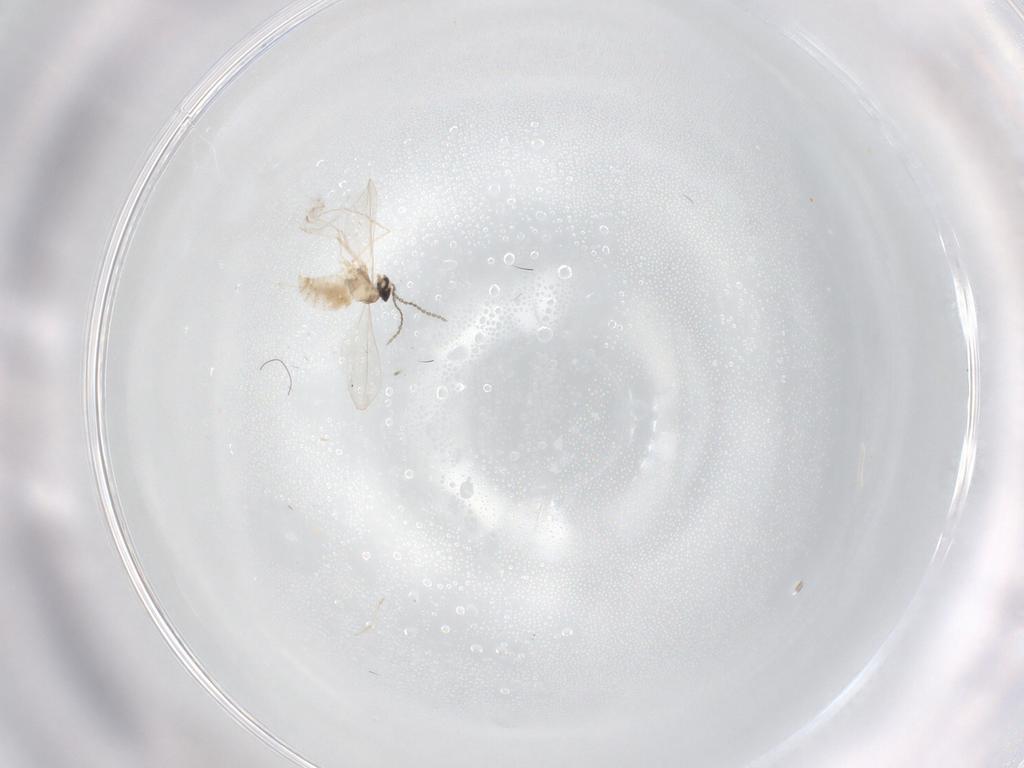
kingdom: Animalia
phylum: Arthropoda
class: Insecta
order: Diptera
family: Cecidomyiidae
